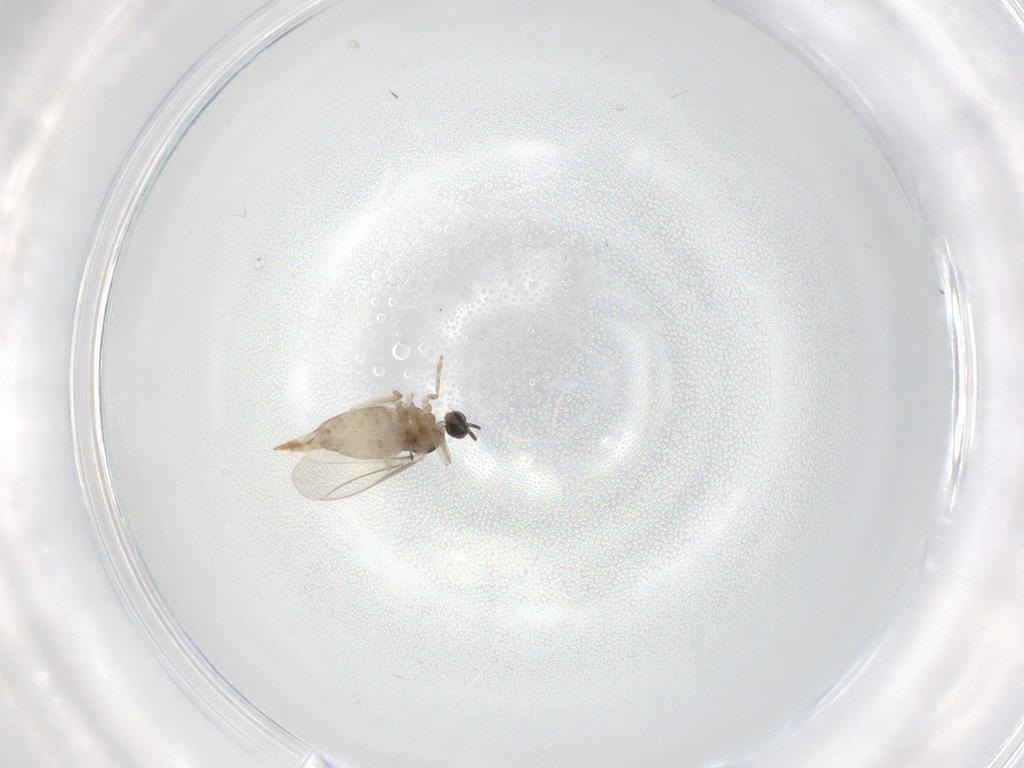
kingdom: Animalia
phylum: Arthropoda
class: Insecta
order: Diptera
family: Cecidomyiidae
